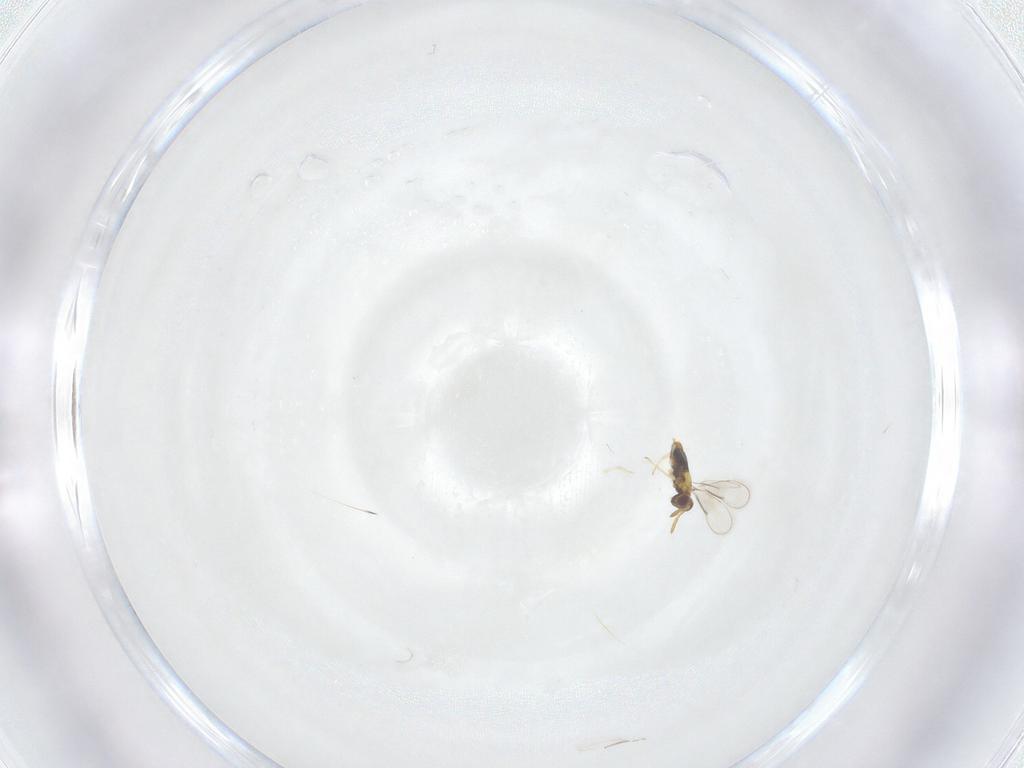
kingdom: Animalia
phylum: Arthropoda
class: Insecta
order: Hymenoptera
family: Aphelinidae
